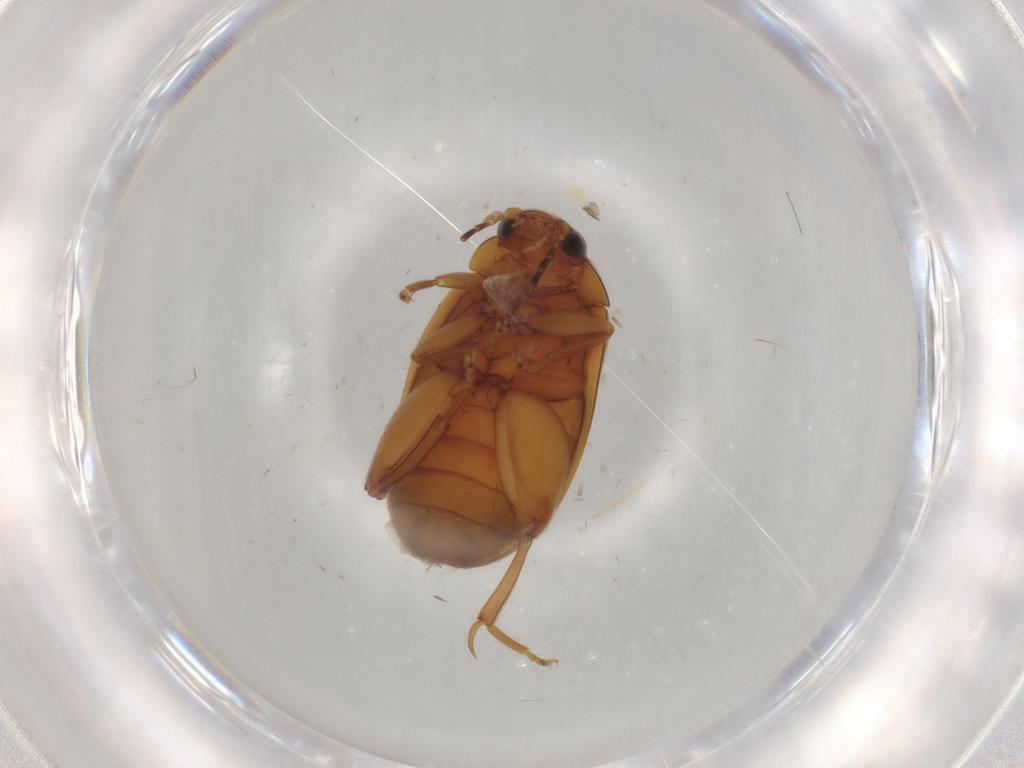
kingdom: Animalia
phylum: Arthropoda
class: Insecta
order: Coleoptera
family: Scirtidae
